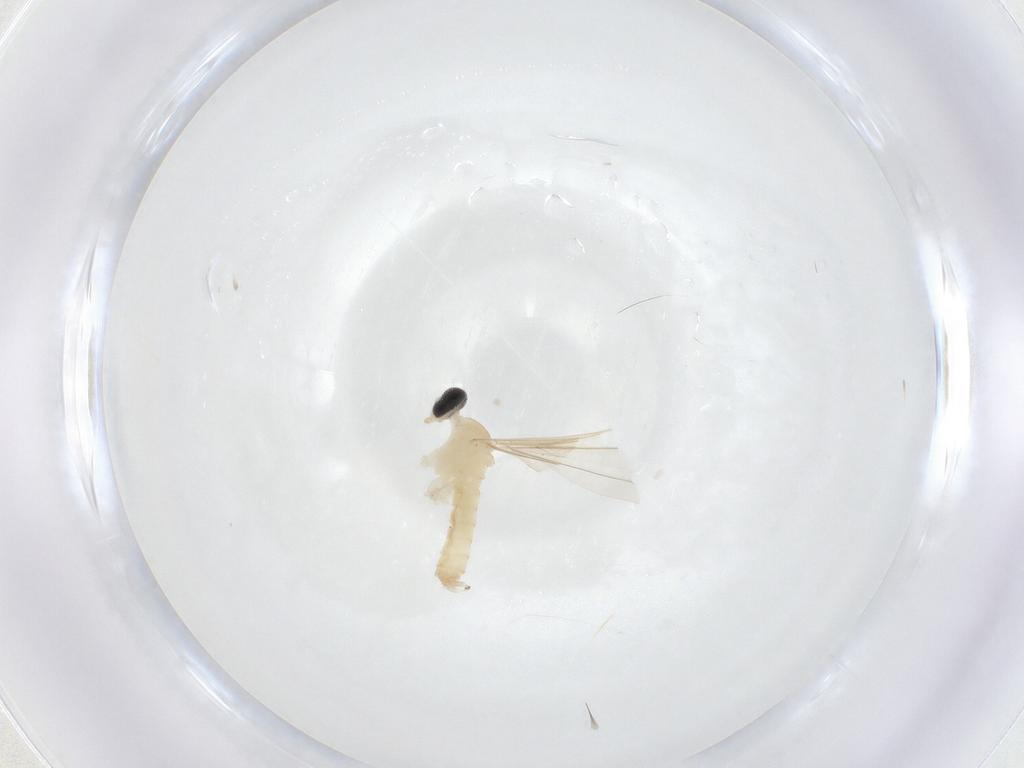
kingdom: Animalia
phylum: Arthropoda
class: Insecta
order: Diptera
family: Cecidomyiidae
